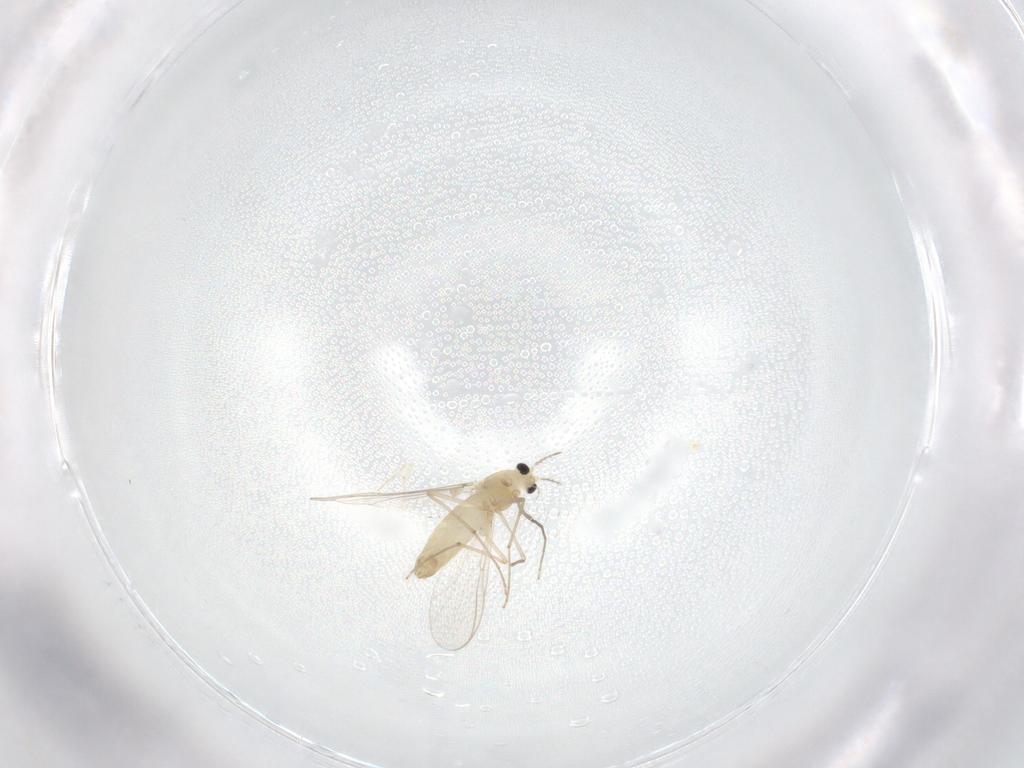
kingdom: Animalia
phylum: Arthropoda
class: Insecta
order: Diptera
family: Chironomidae
